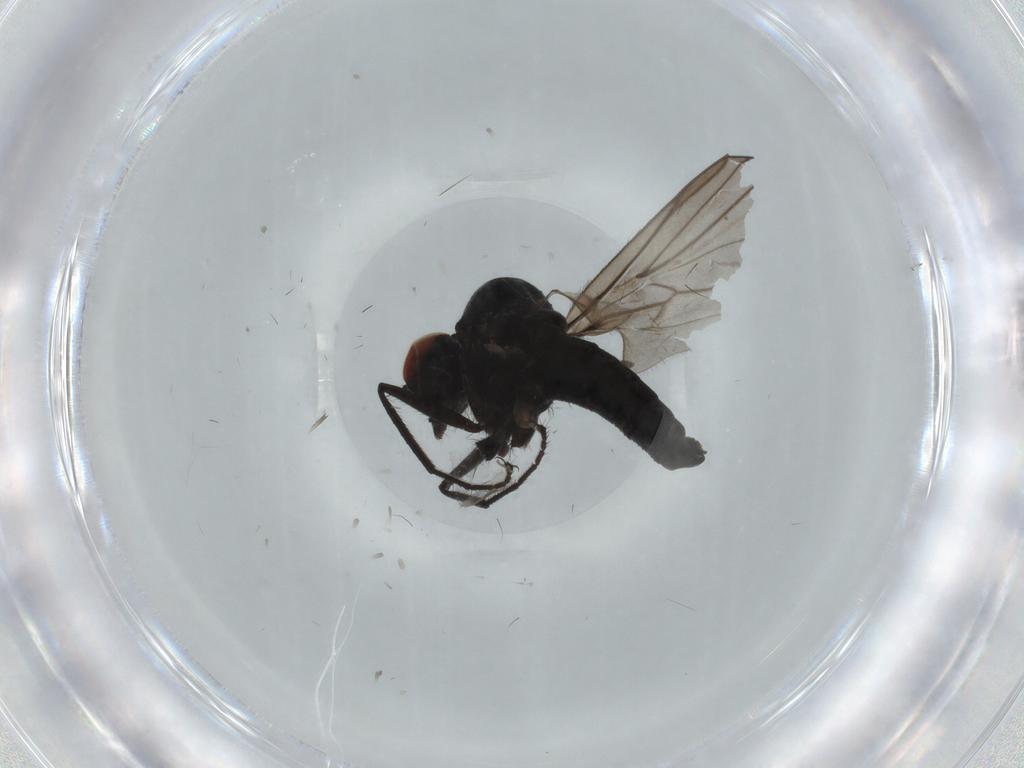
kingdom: Animalia
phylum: Arthropoda
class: Insecta
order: Diptera
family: Hybotidae
